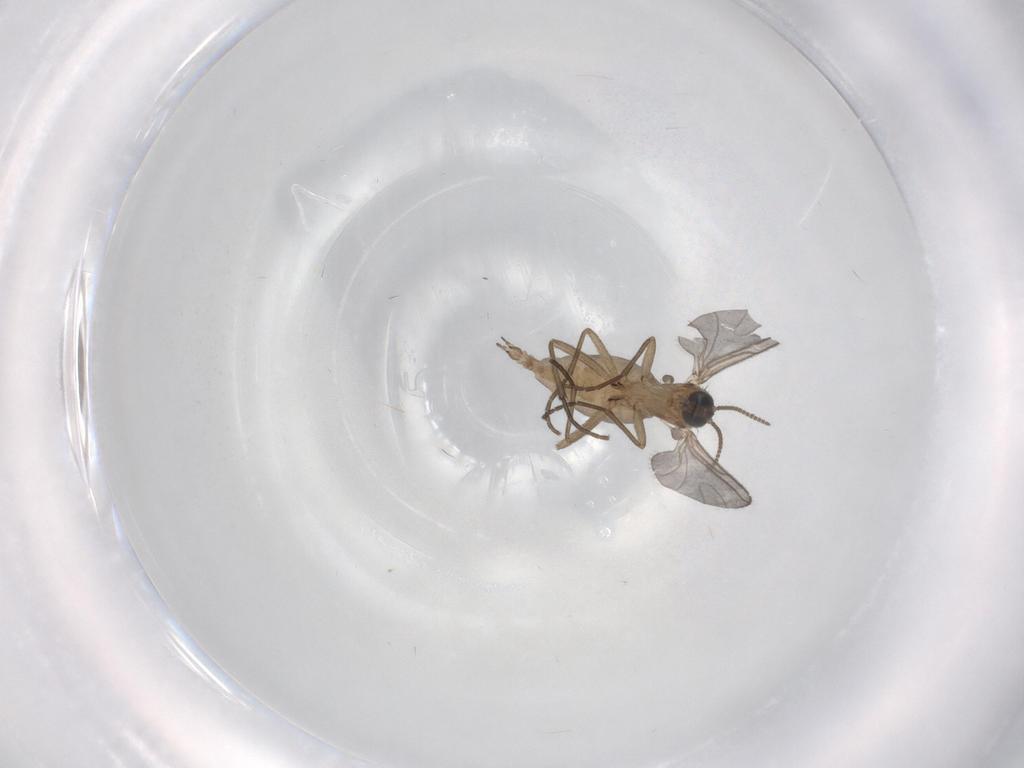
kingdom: Animalia
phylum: Arthropoda
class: Insecta
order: Diptera
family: Sciaridae
